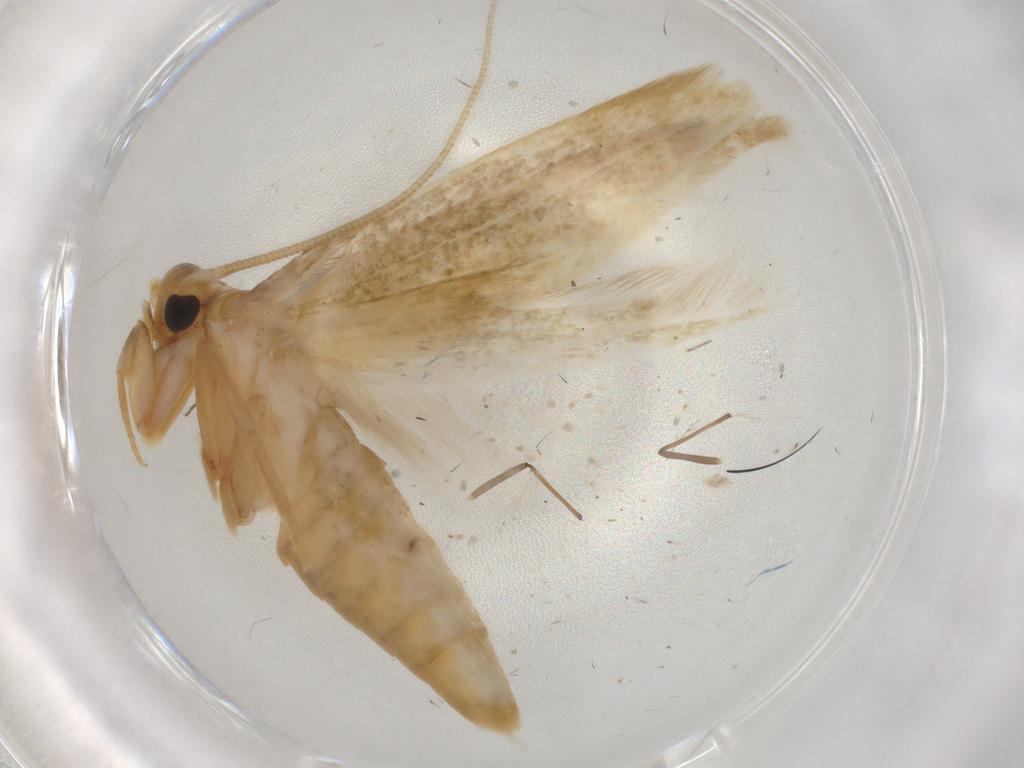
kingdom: Animalia
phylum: Arthropoda
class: Insecta
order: Lepidoptera
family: Tineidae
